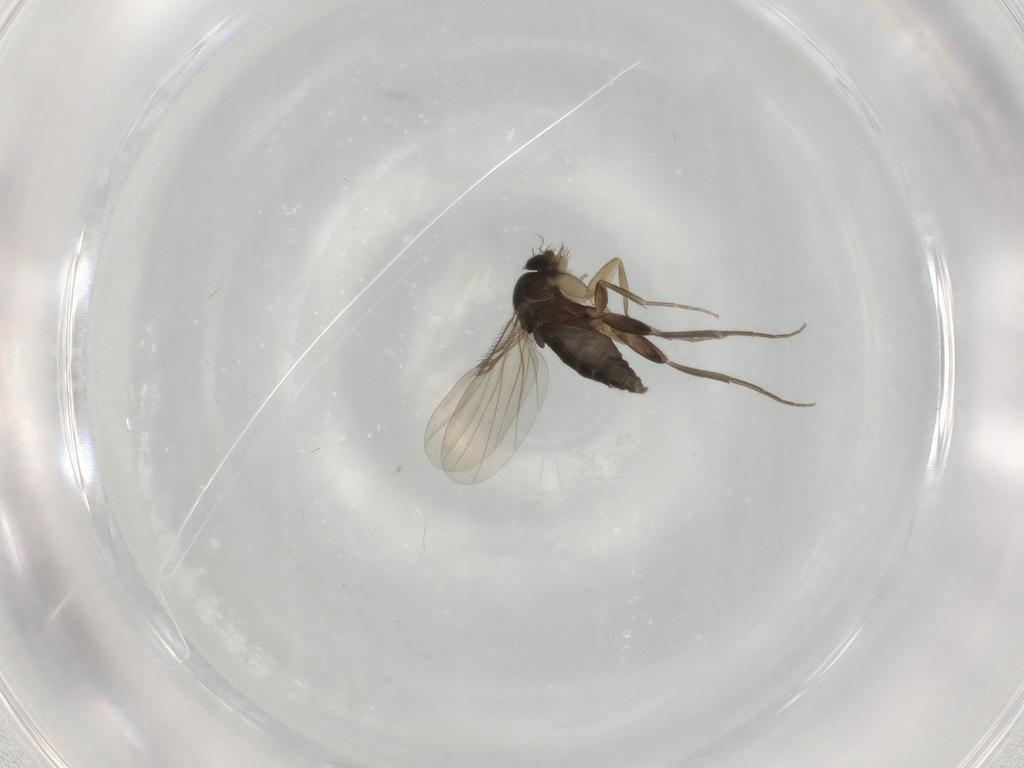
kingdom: Animalia
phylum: Arthropoda
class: Insecta
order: Diptera
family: Phoridae
